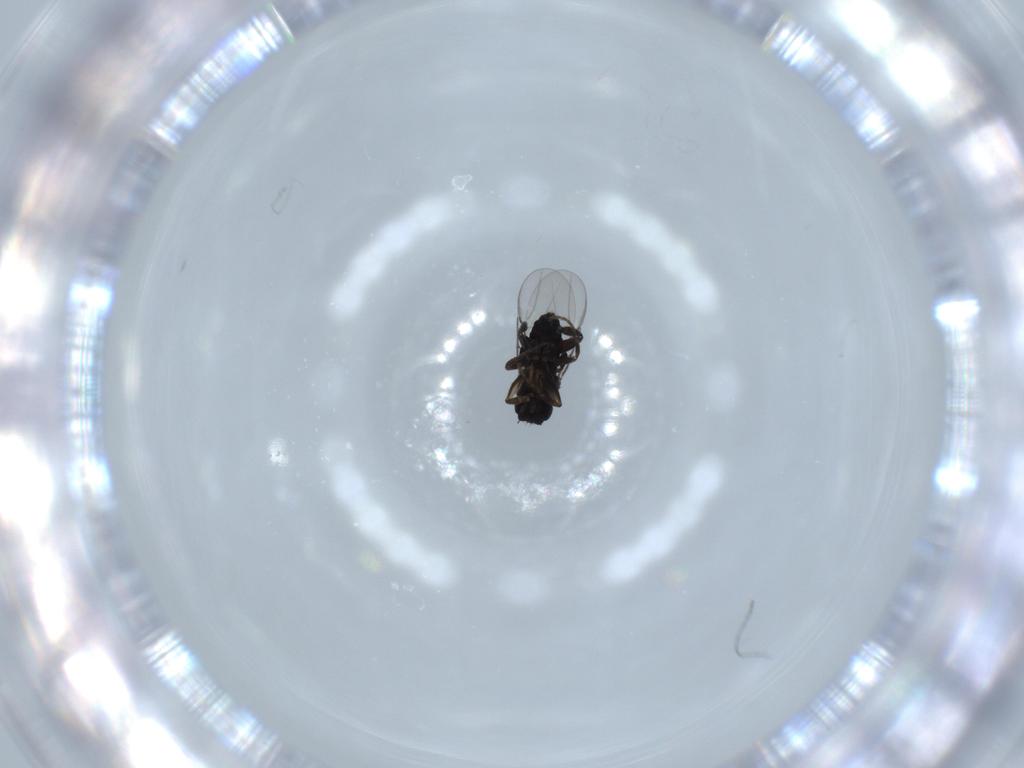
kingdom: Animalia
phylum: Arthropoda
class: Insecta
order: Diptera
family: Phoridae
